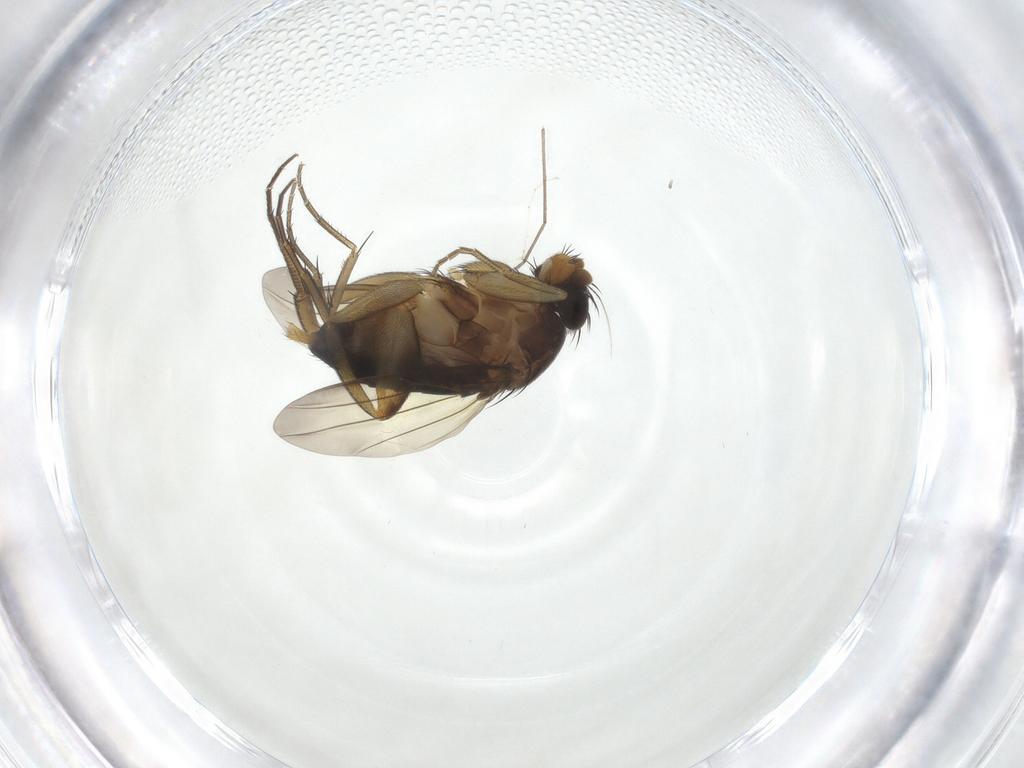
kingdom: Animalia
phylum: Arthropoda
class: Insecta
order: Diptera
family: Phoridae
